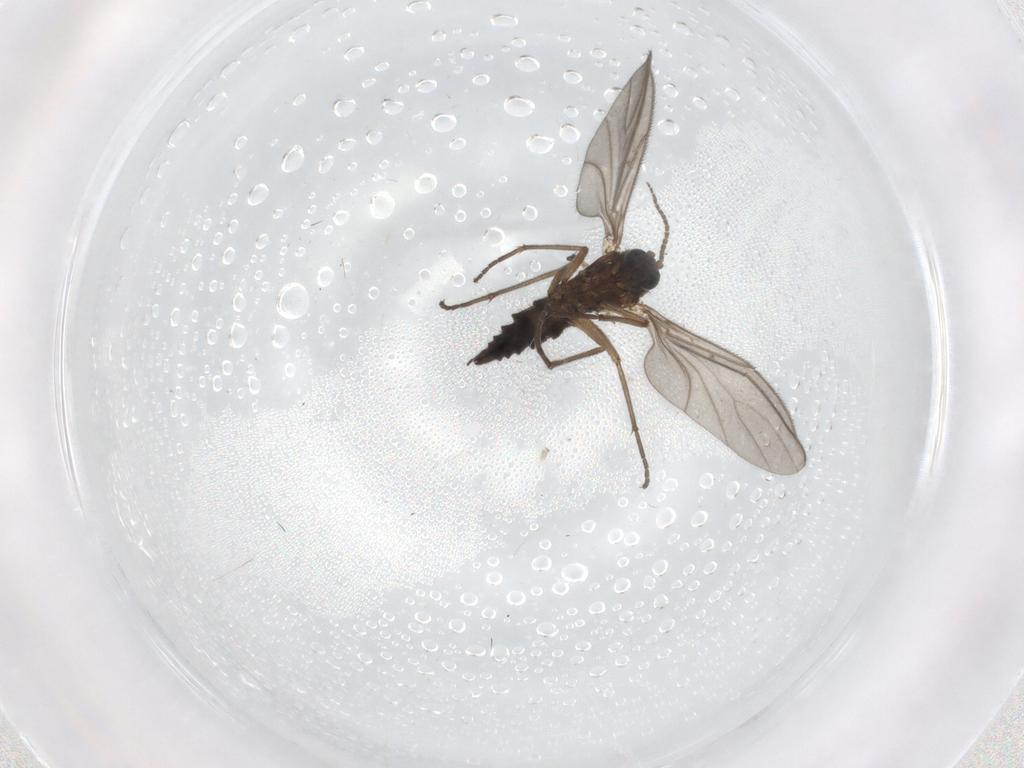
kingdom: Animalia
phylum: Arthropoda
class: Insecta
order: Diptera
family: Sciaridae
